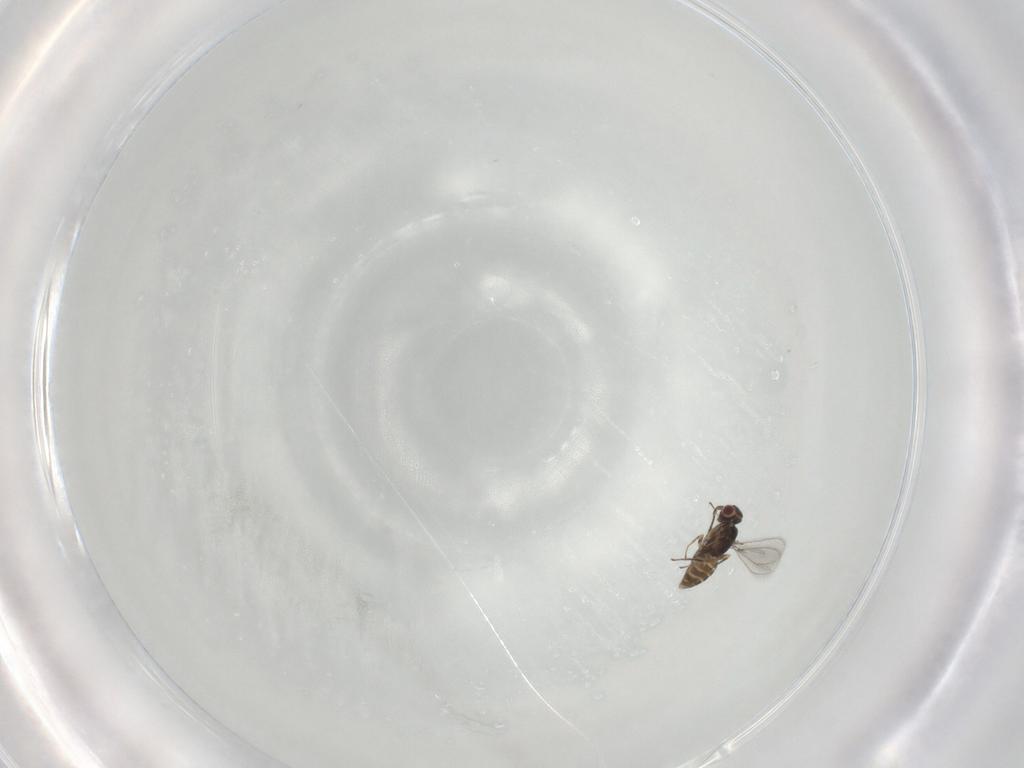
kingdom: Animalia
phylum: Arthropoda
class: Insecta
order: Hymenoptera
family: Mymaridae
